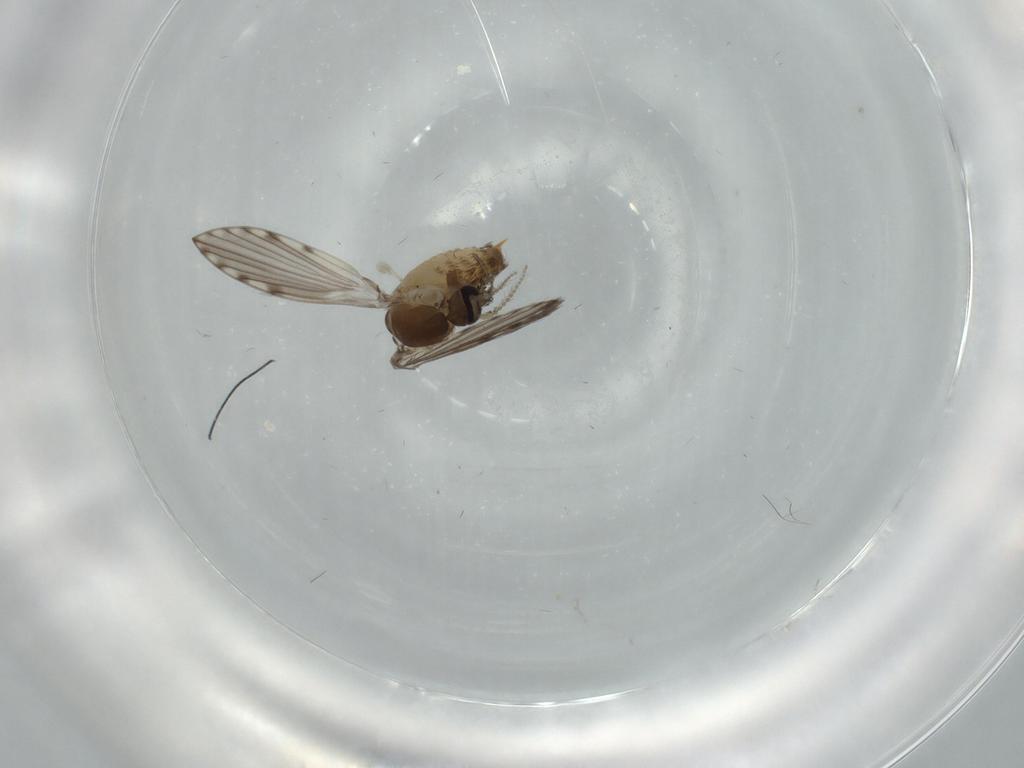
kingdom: Animalia
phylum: Arthropoda
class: Insecta
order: Diptera
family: Psychodidae
